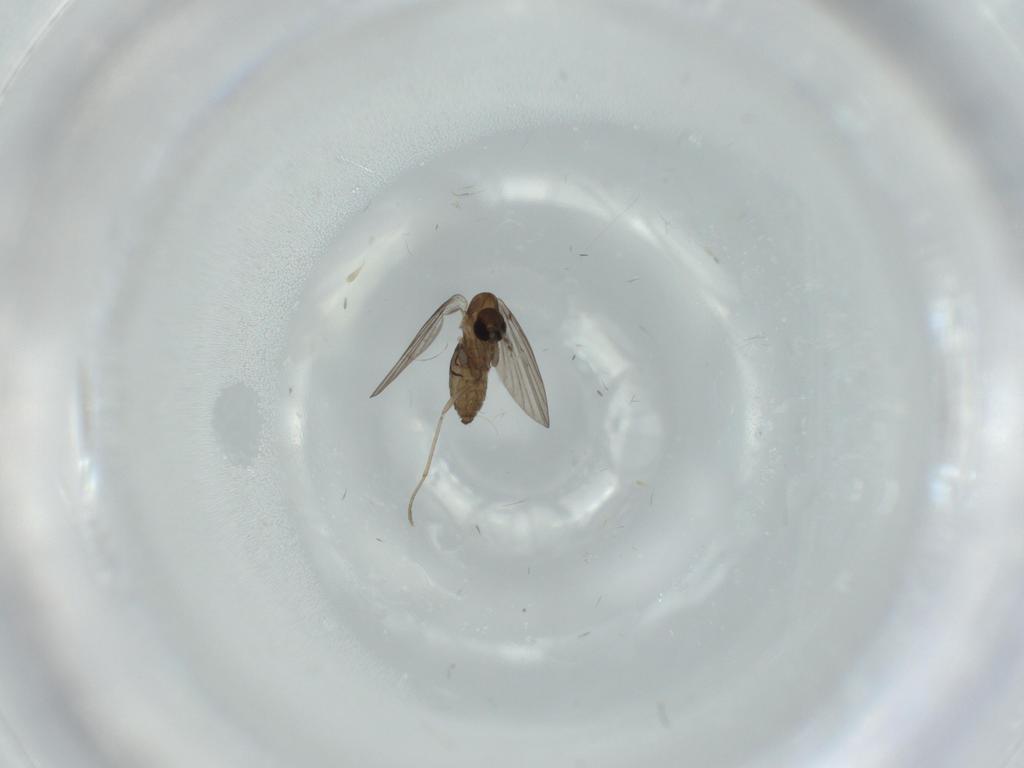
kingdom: Animalia
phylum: Arthropoda
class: Insecta
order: Diptera
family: Psychodidae
